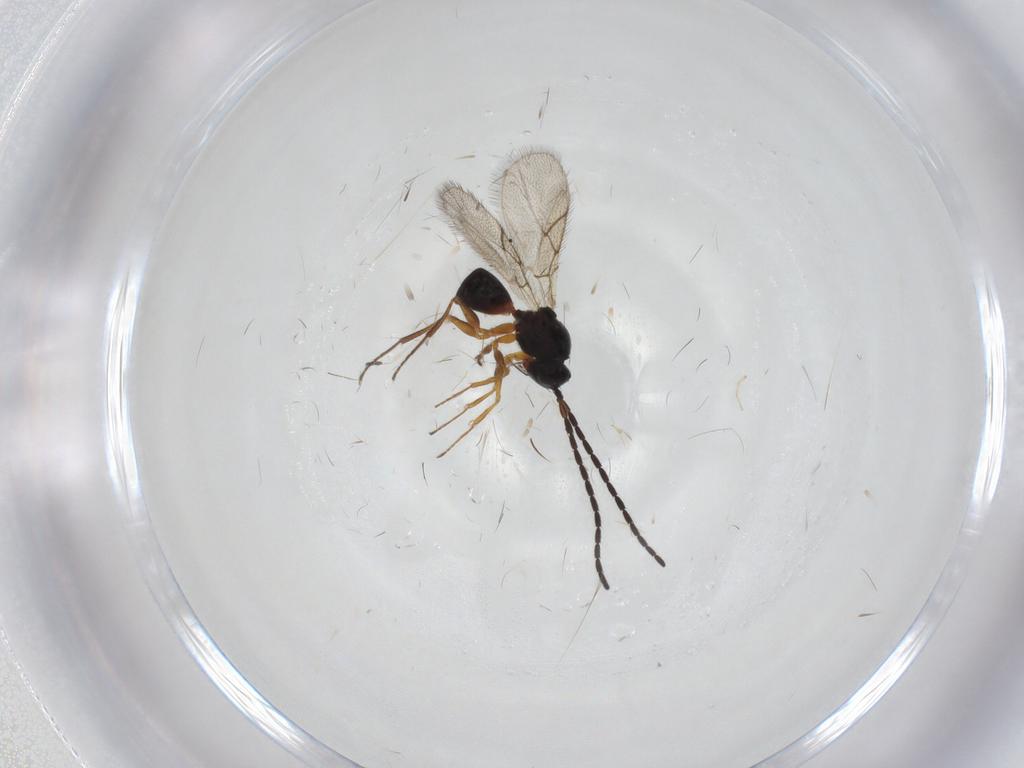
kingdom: Animalia
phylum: Arthropoda
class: Insecta
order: Hymenoptera
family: Figitidae
